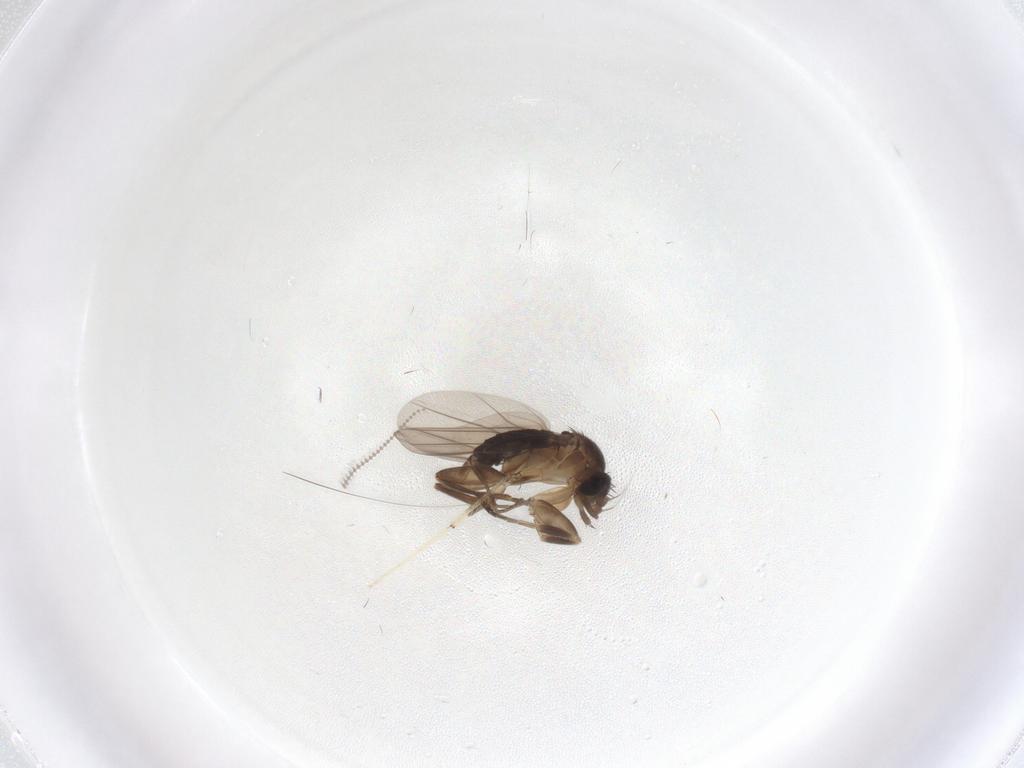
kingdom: Animalia
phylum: Arthropoda
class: Insecta
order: Diptera
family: Phoridae
